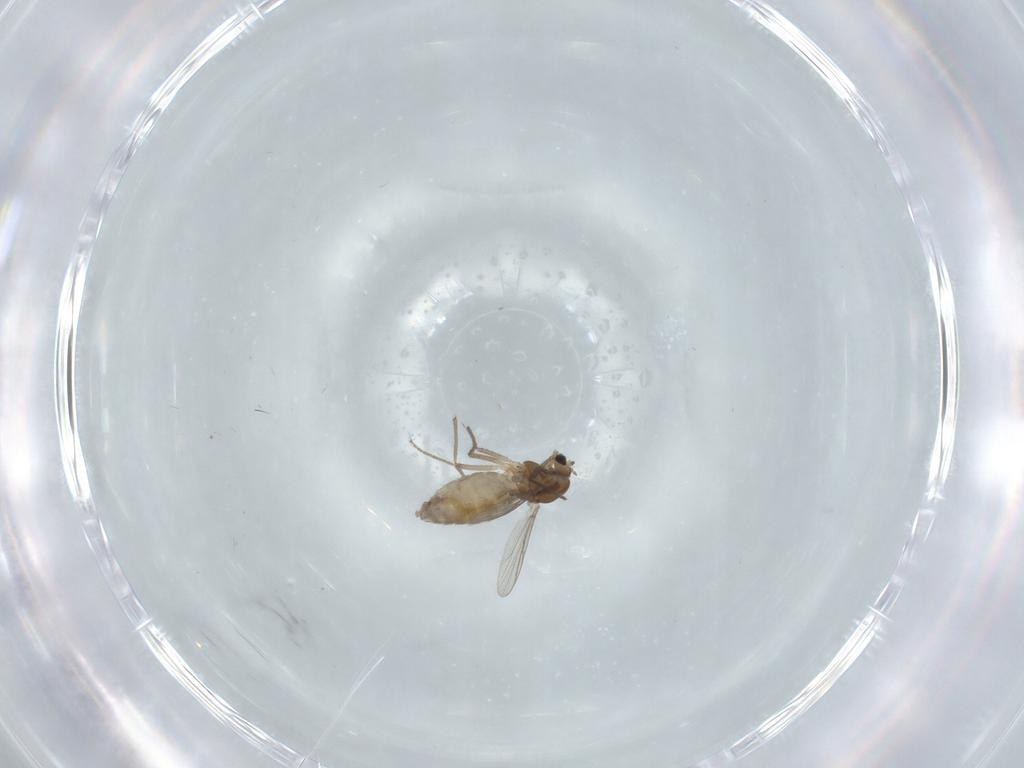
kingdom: Animalia
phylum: Arthropoda
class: Insecta
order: Diptera
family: Chironomidae
